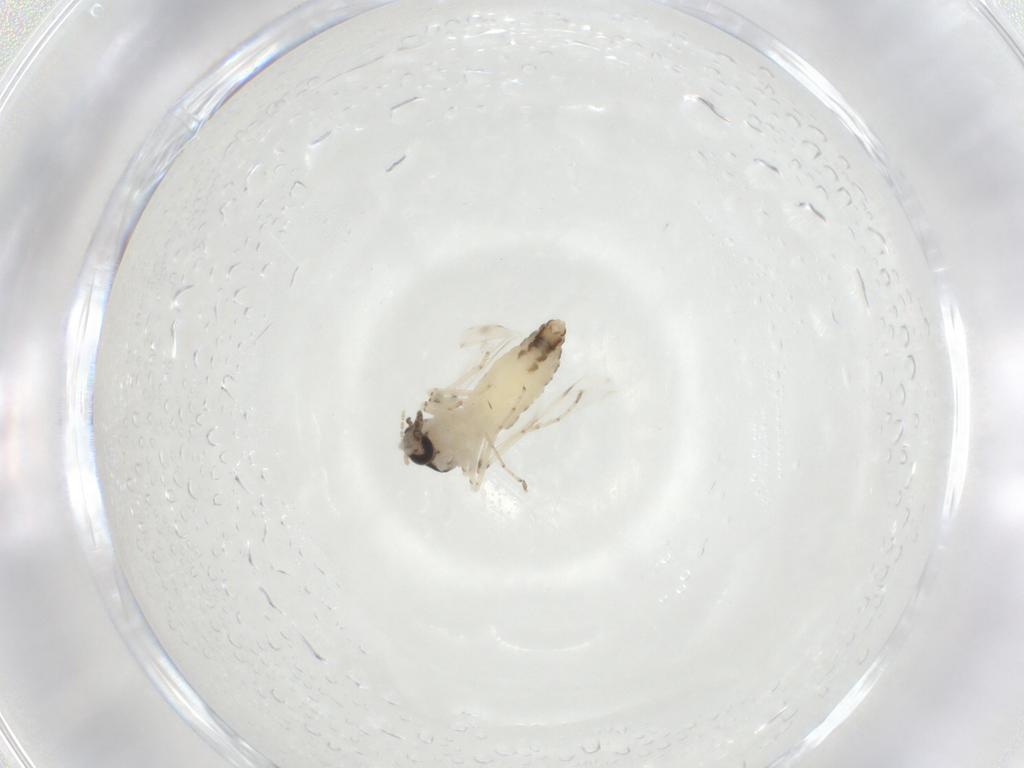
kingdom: Animalia
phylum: Arthropoda
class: Insecta
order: Diptera
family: Ceratopogonidae
